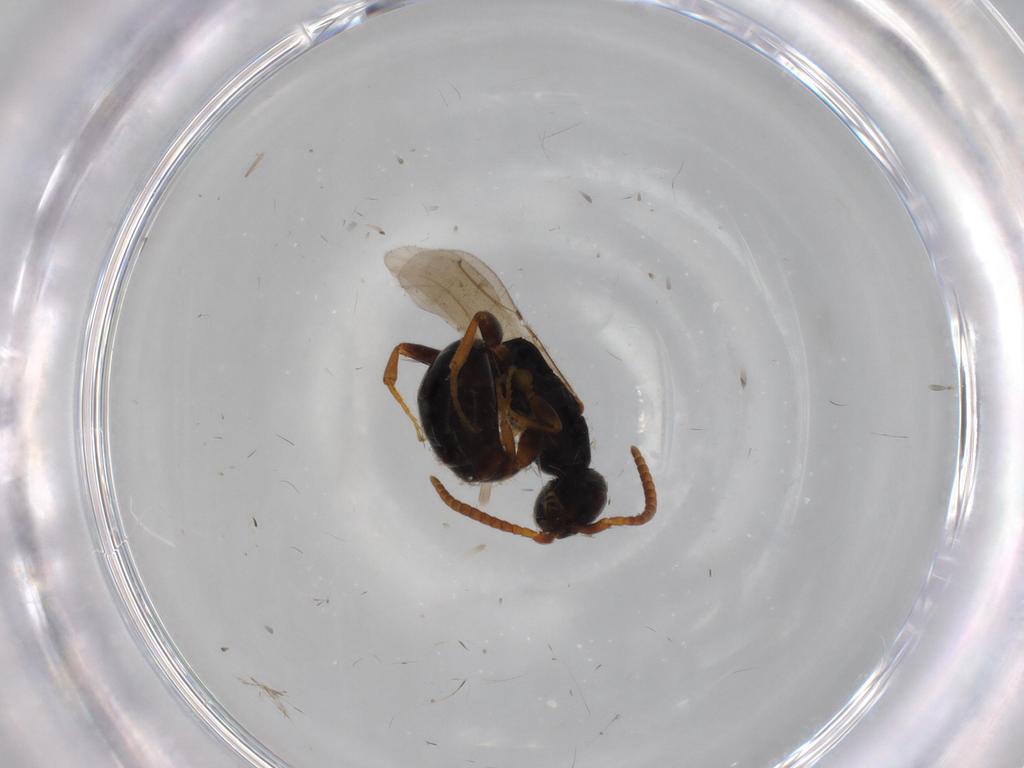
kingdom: Animalia
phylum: Arthropoda
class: Insecta
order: Hymenoptera
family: Bethylidae
